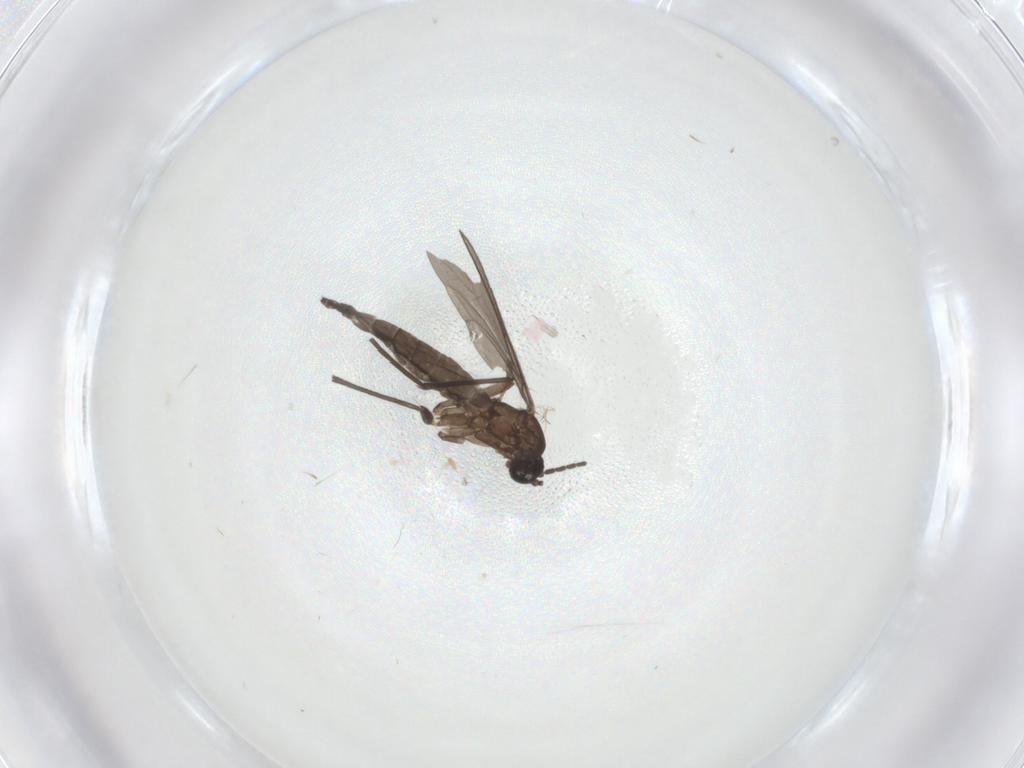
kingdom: Animalia
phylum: Arthropoda
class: Insecta
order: Diptera
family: Sciaridae
